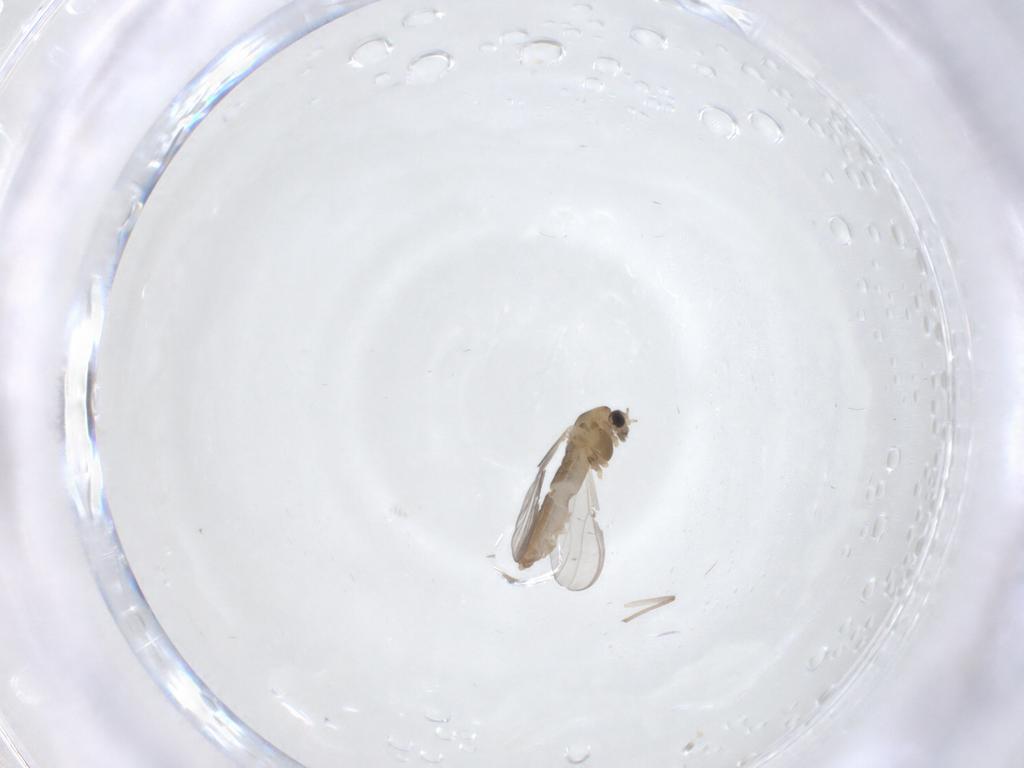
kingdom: Animalia
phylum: Arthropoda
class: Insecta
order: Diptera
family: Chironomidae
